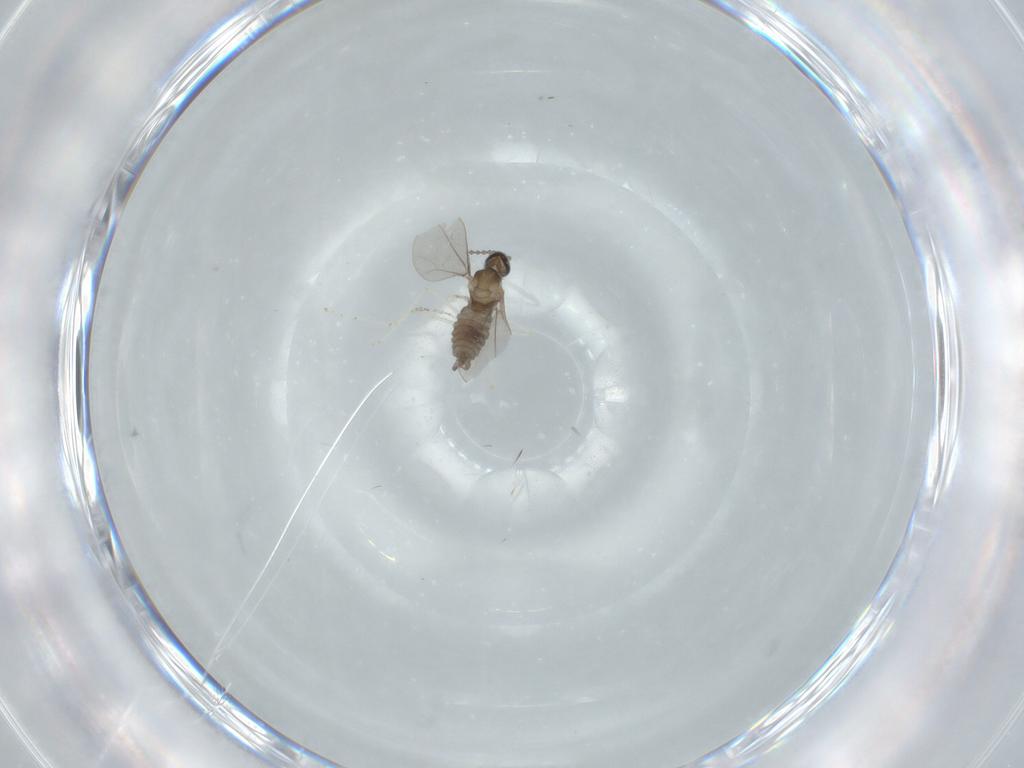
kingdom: Animalia
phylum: Arthropoda
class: Insecta
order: Diptera
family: Cecidomyiidae
